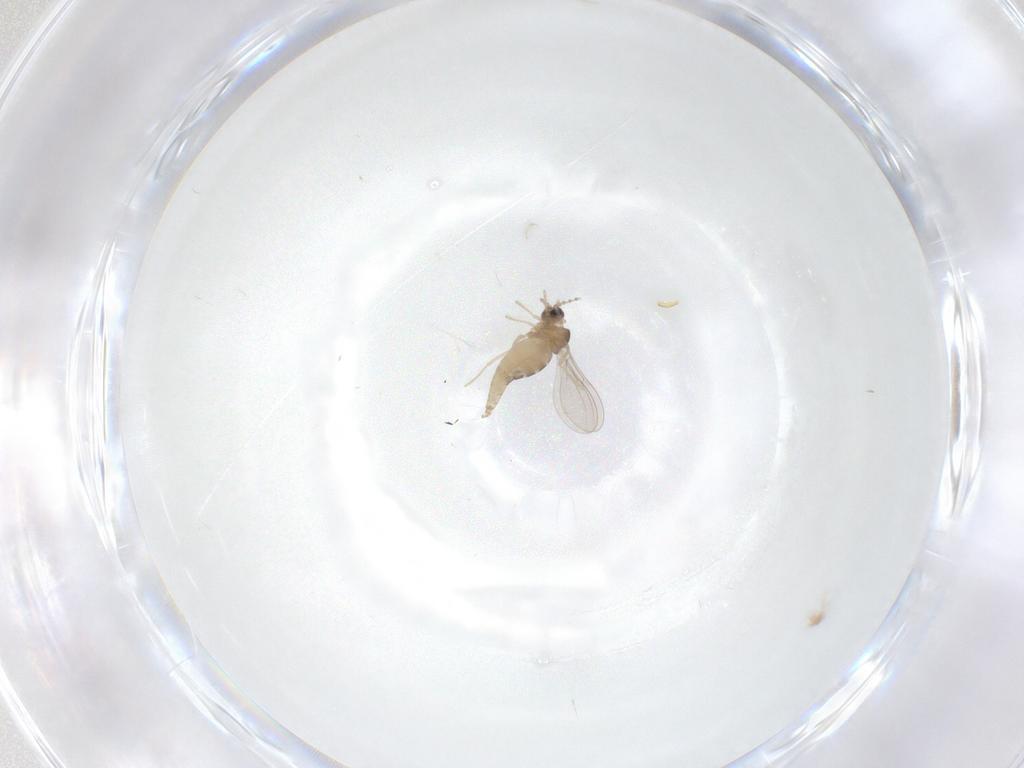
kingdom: Animalia
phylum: Arthropoda
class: Insecta
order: Diptera
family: Cecidomyiidae
